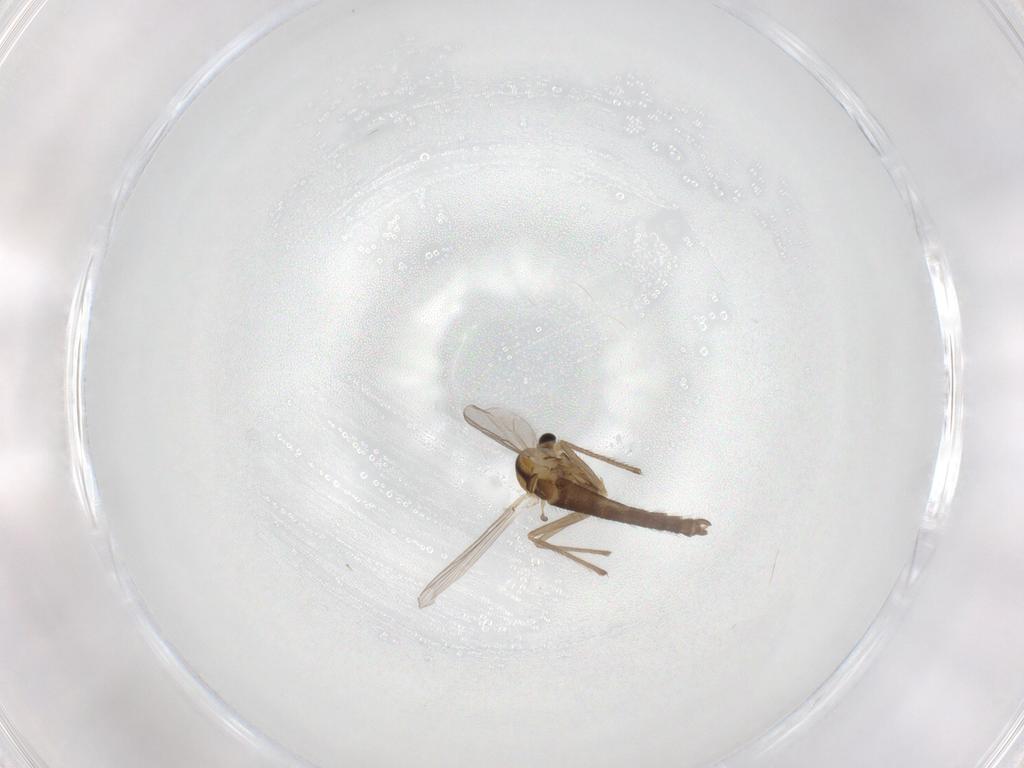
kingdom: Animalia
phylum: Arthropoda
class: Insecta
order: Diptera
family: Chironomidae
